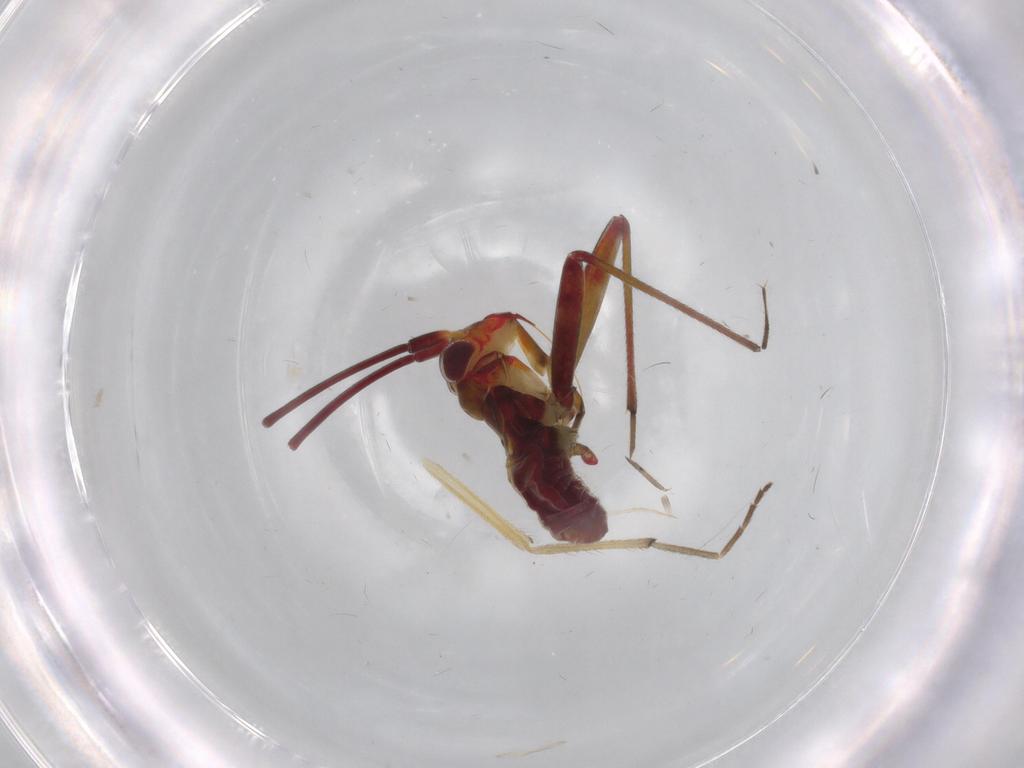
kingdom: Animalia
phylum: Arthropoda
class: Insecta
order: Hemiptera
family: Miridae
